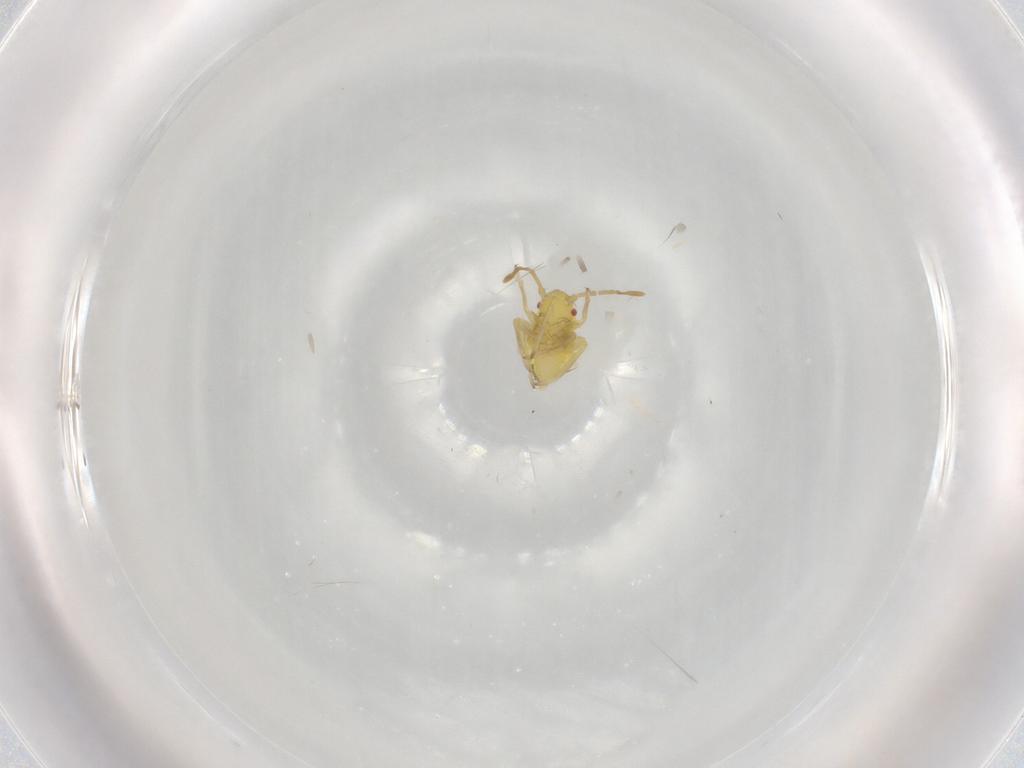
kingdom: Animalia
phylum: Arthropoda
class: Insecta
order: Hemiptera
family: Miridae
